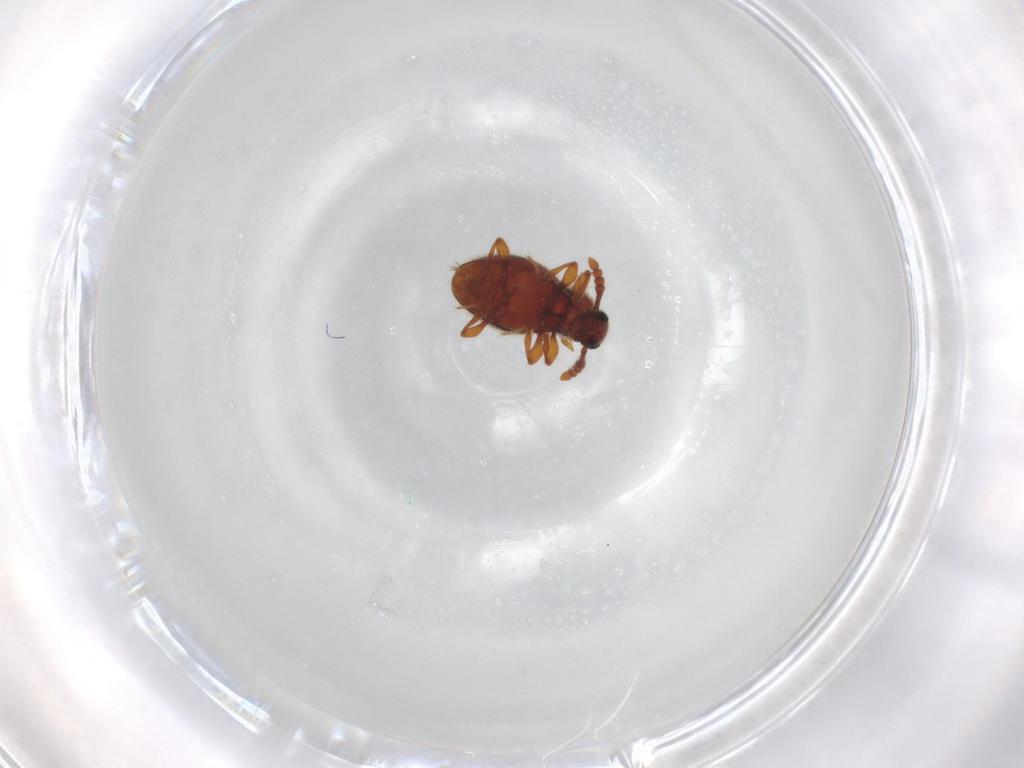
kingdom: Animalia
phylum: Arthropoda
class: Insecta
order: Coleoptera
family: Staphylinidae
